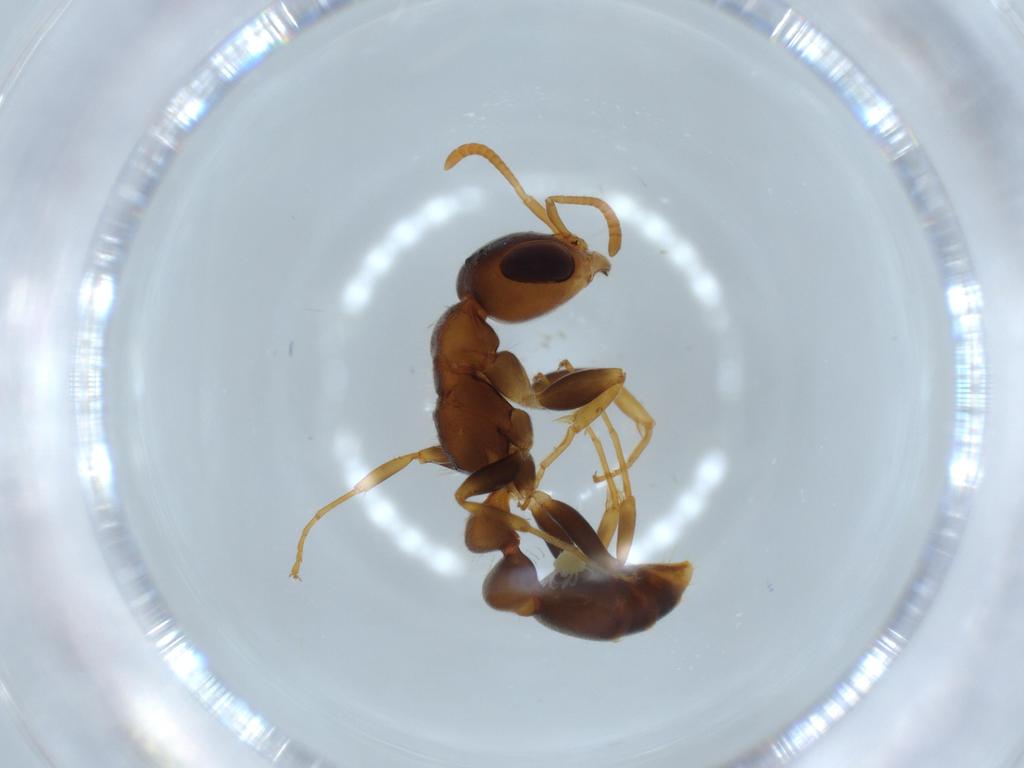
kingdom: Animalia
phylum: Arthropoda
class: Insecta
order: Hymenoptera
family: Formicidae
